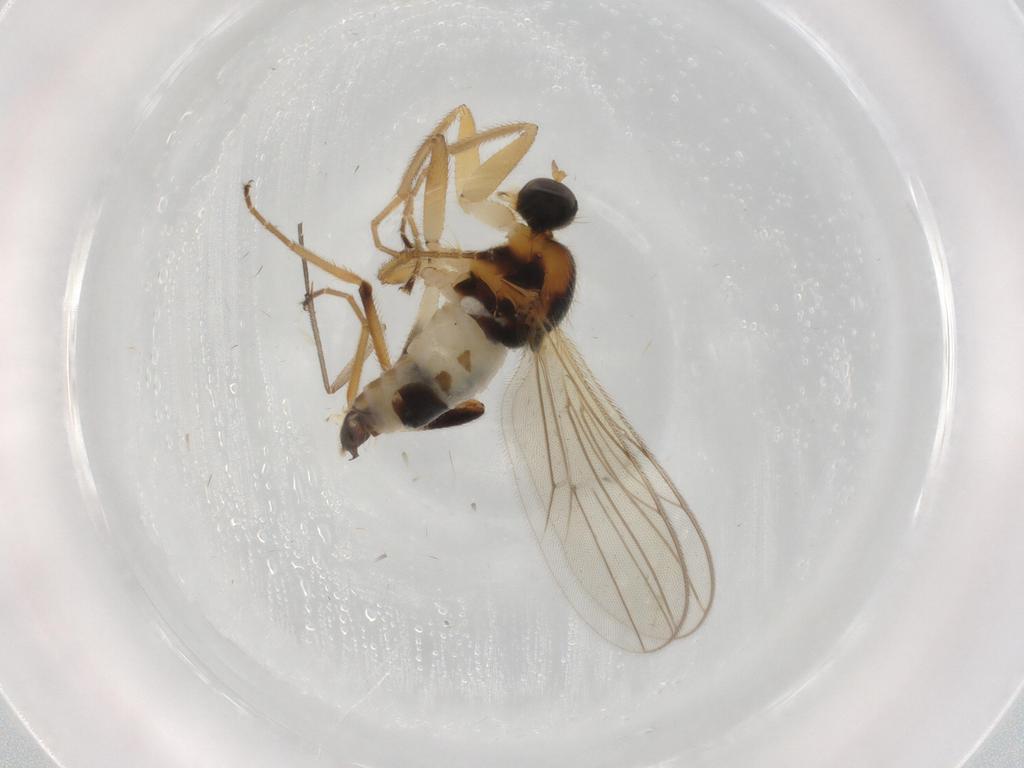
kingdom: Animalia
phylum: Arthropoda
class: Insecta
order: Diptera
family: Hybotidae
